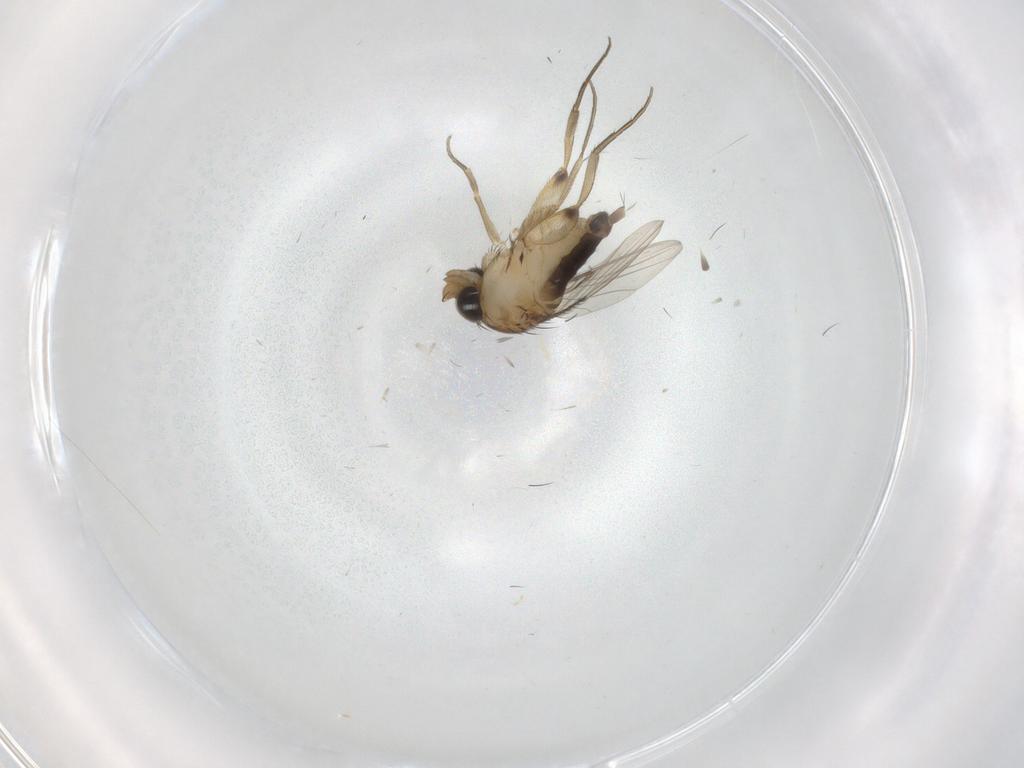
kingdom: Animalia
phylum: Arthropoda
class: Insecta
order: Diptera
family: Phoridae
